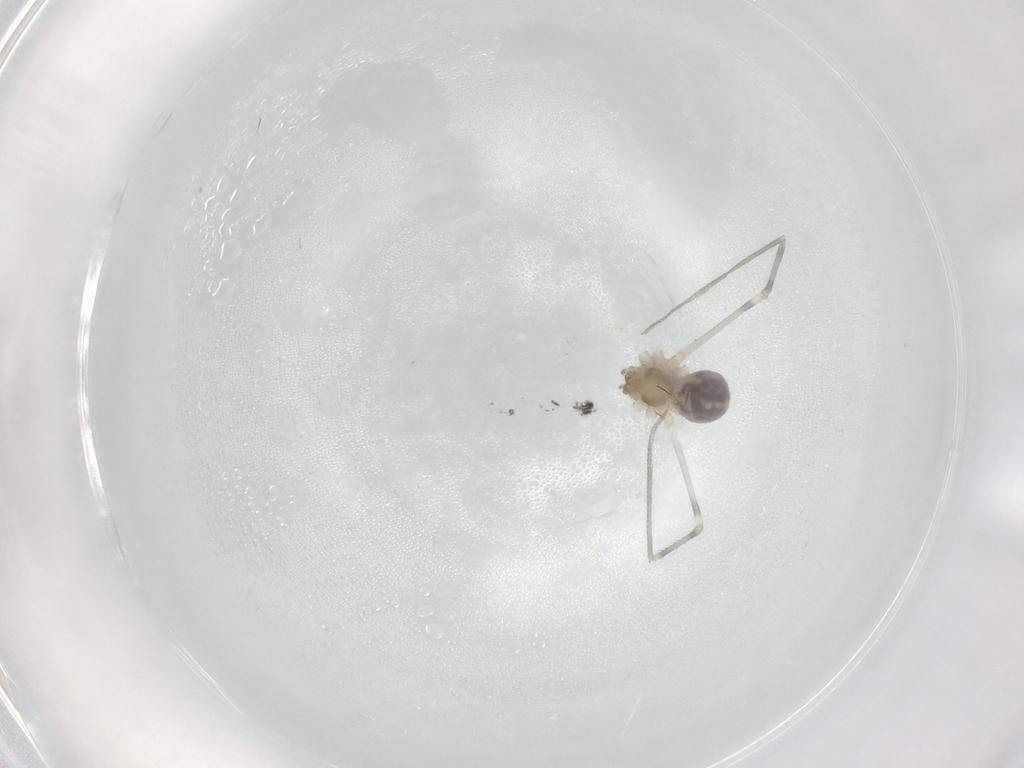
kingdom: Animalia
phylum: Arthropoda
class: Arachnida
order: Araneae
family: Pholcidae
